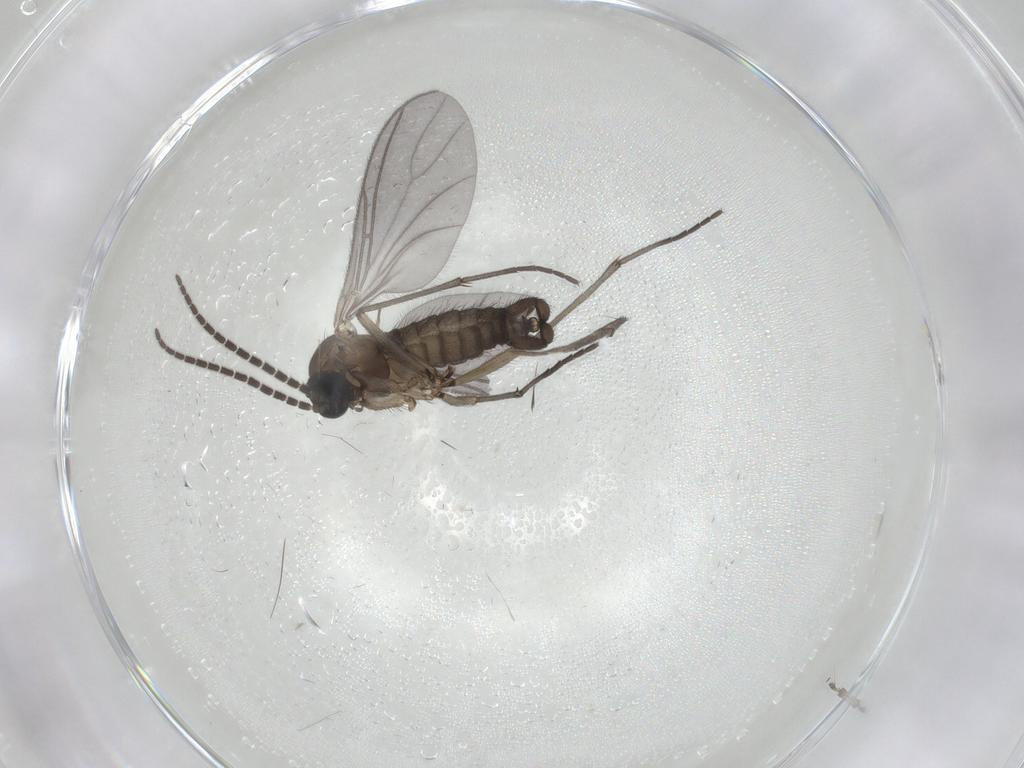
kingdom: Animalia
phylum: Arthropoda
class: Insecta
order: Diptera
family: Sciaridae
